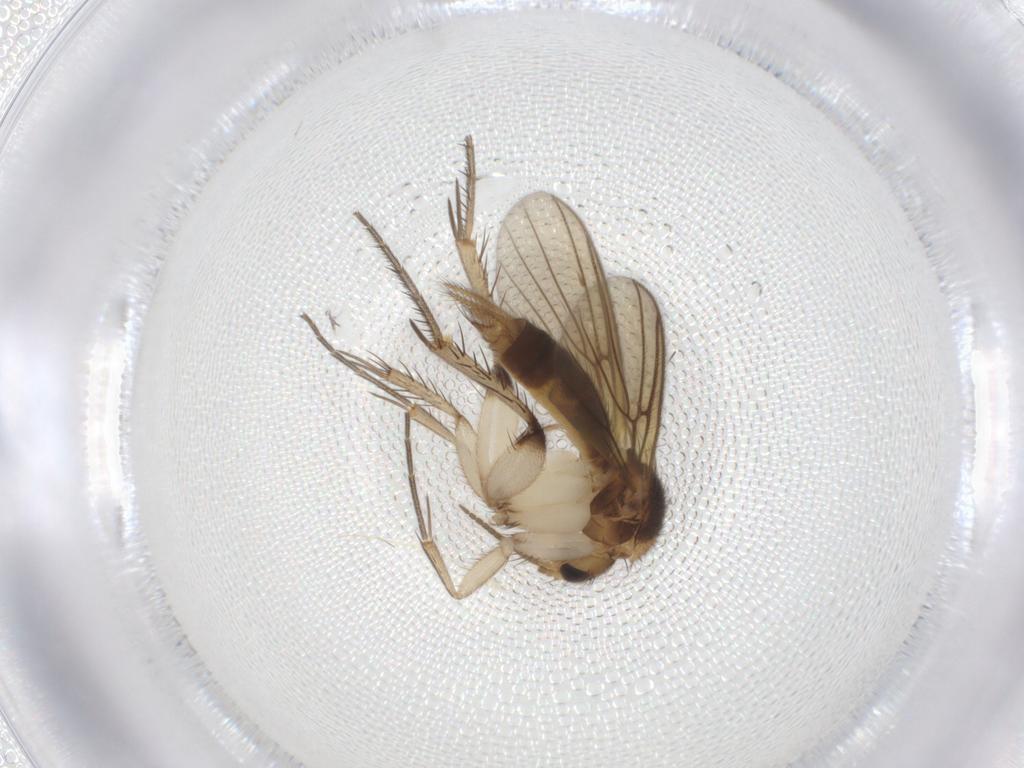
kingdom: Animalia
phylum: Arthropoda
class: Insecta
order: Diptera
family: Mycetophilidae
